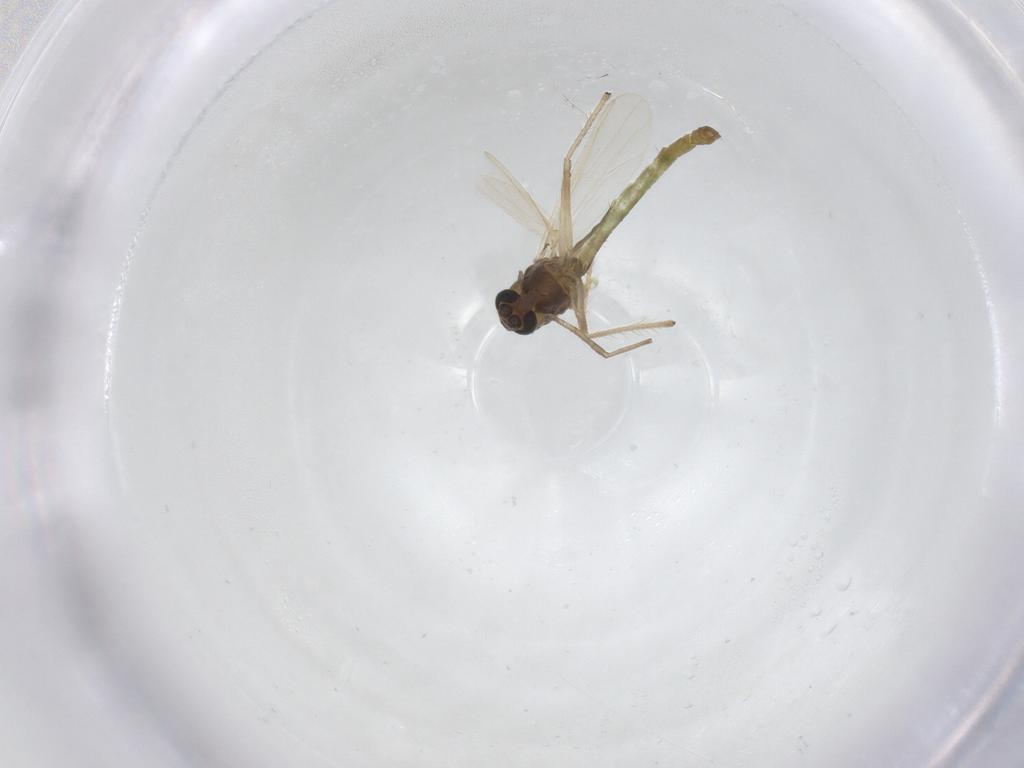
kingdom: Animalia
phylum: Arthropoda
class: Insecta
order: Diptera
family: Chironomidae
